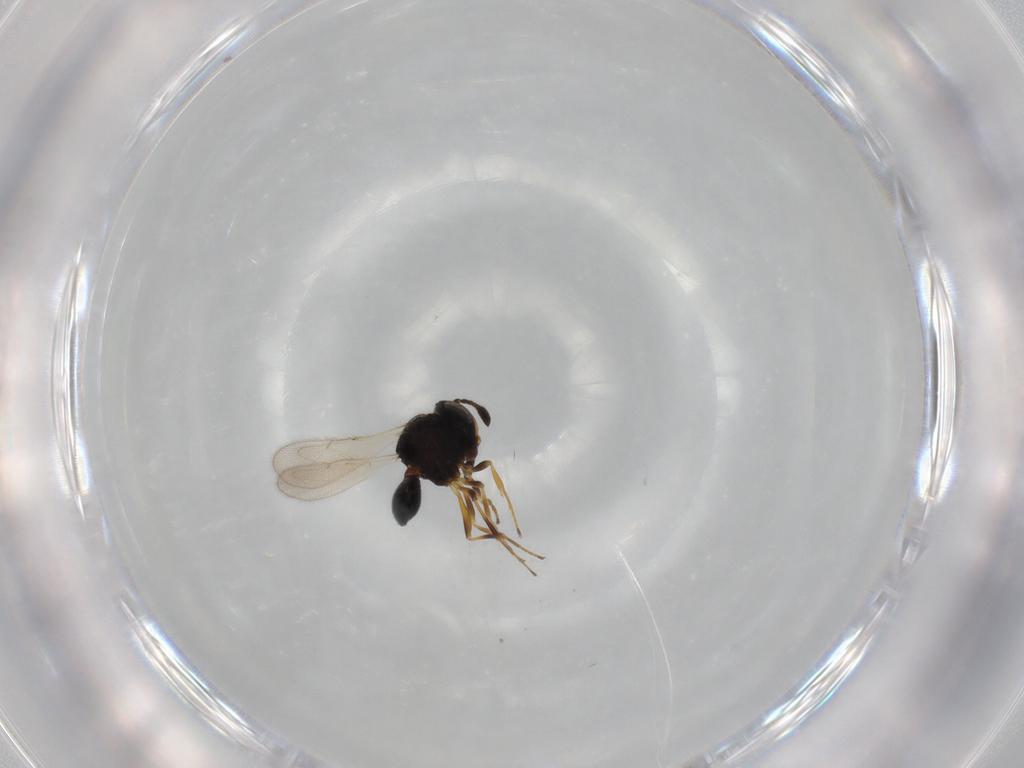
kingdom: Animalia
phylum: Arthropoda
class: Insecta
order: Hymenoptera
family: Scelionidae
